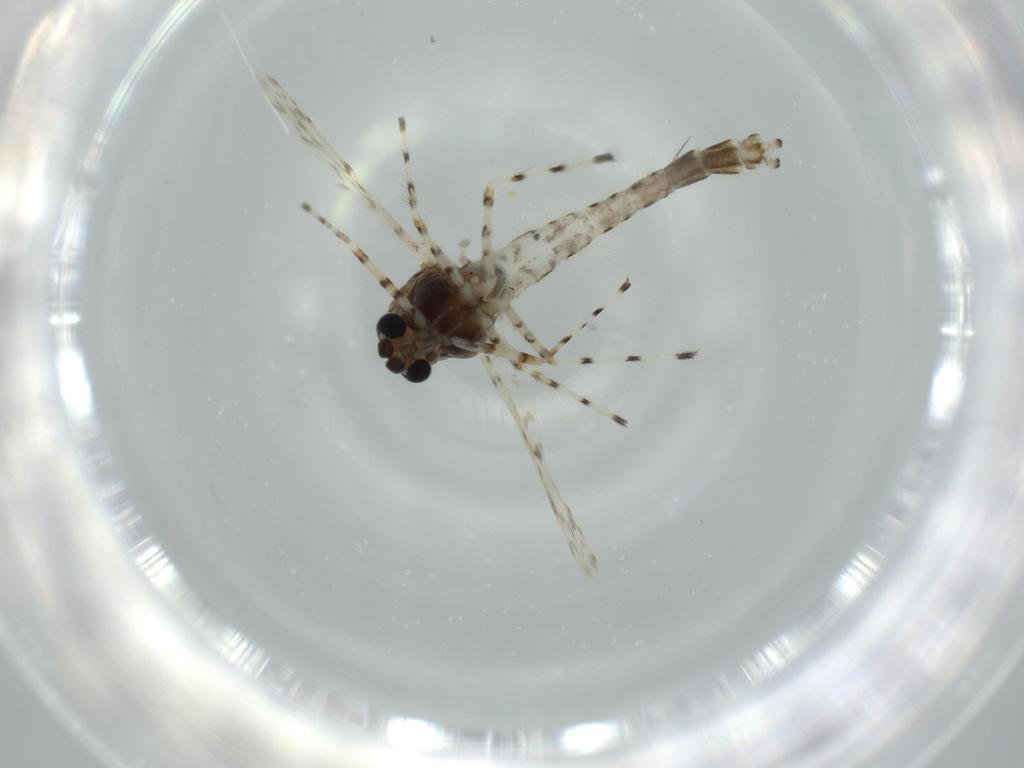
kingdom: Animalia
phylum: Arthropoda
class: Insecta
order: Diptera
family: Chironomidae
